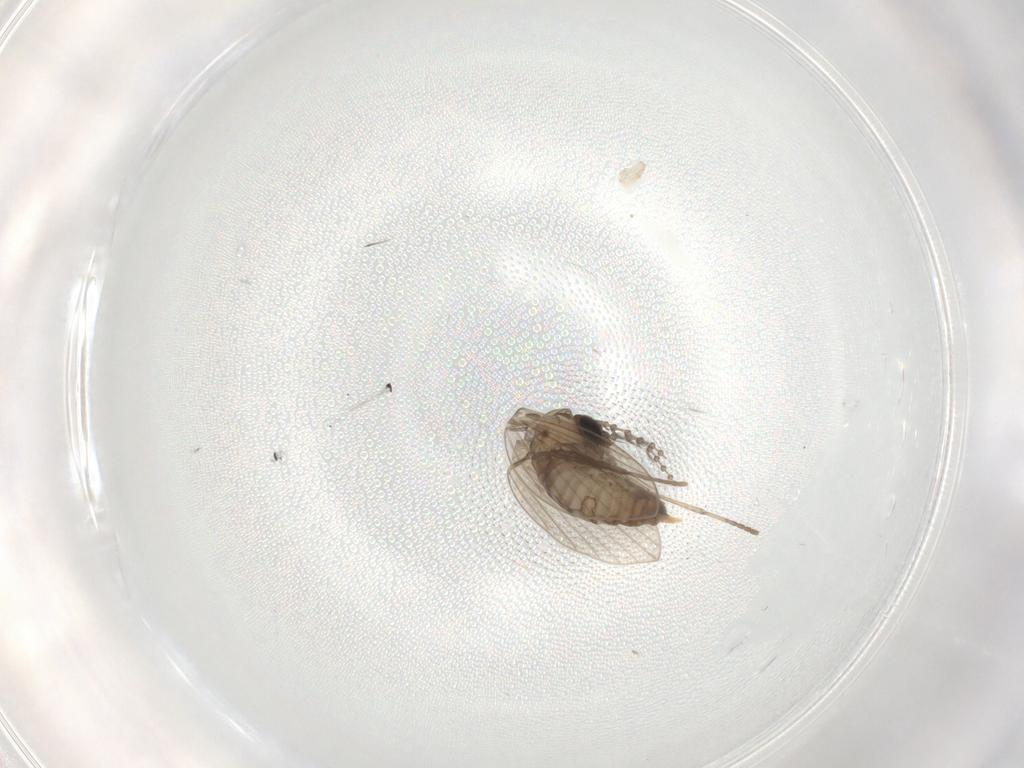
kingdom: Animalia
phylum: Arthropoda
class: Insecta
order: Diptera
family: Psychodidae
